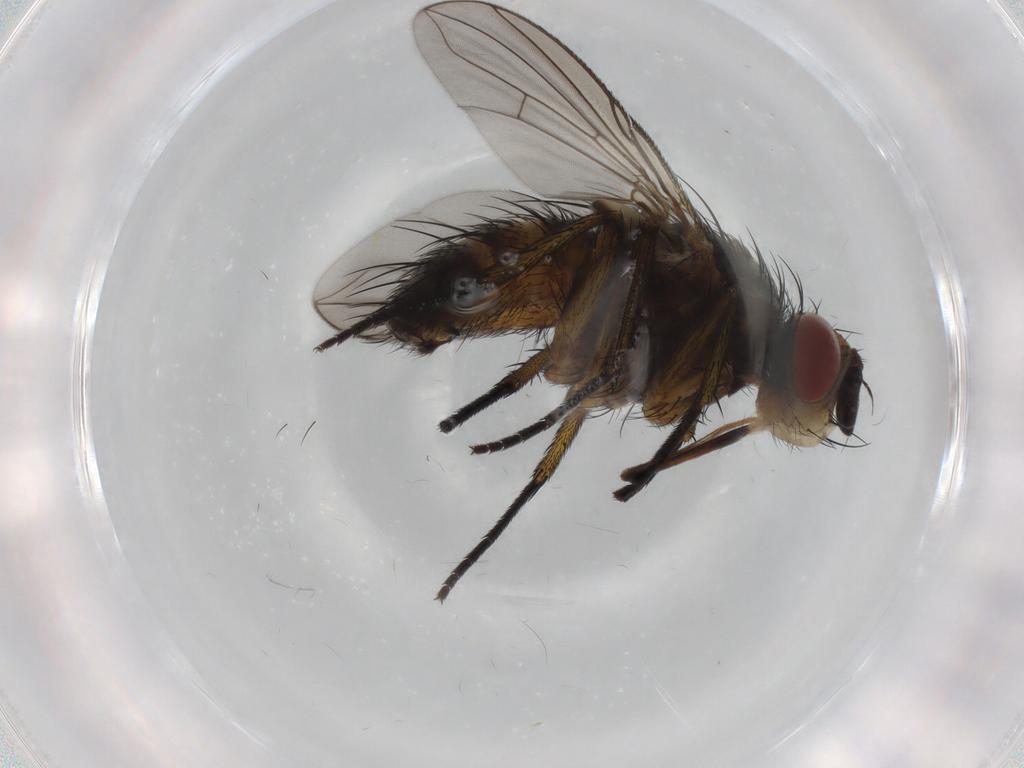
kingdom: Animalia
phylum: Arthropoda
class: Insecta
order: Diptera
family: Tachinidae
